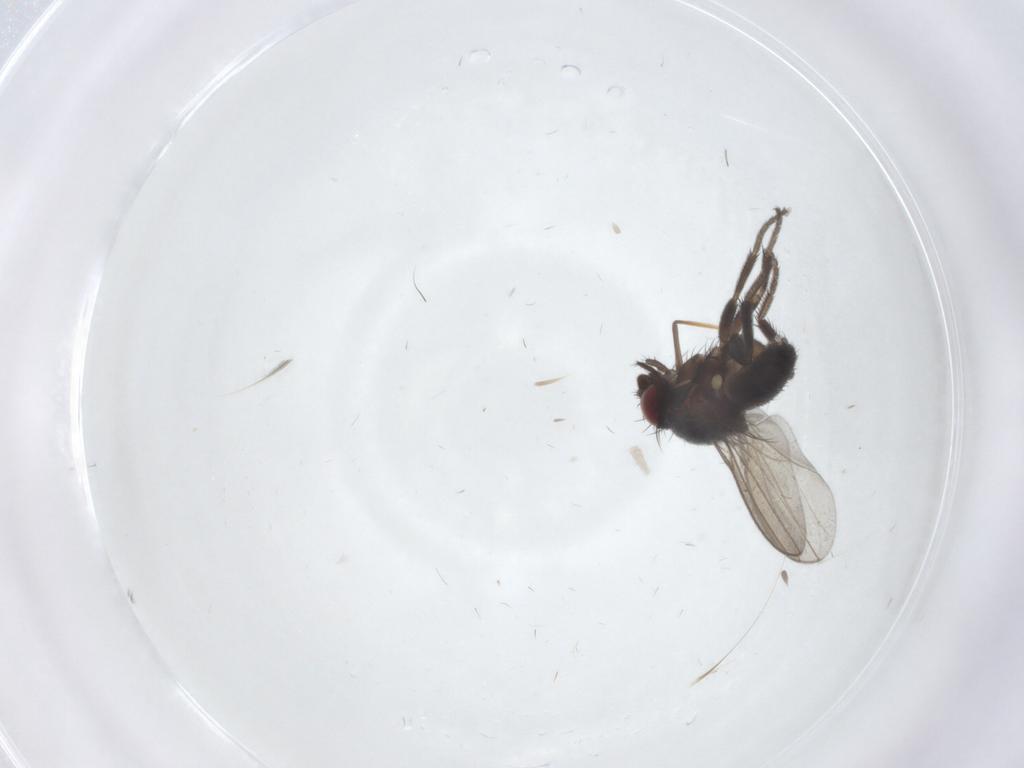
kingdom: Animalia
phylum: Arthropoda
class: Insecta
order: Diptera
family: Milichiidae
